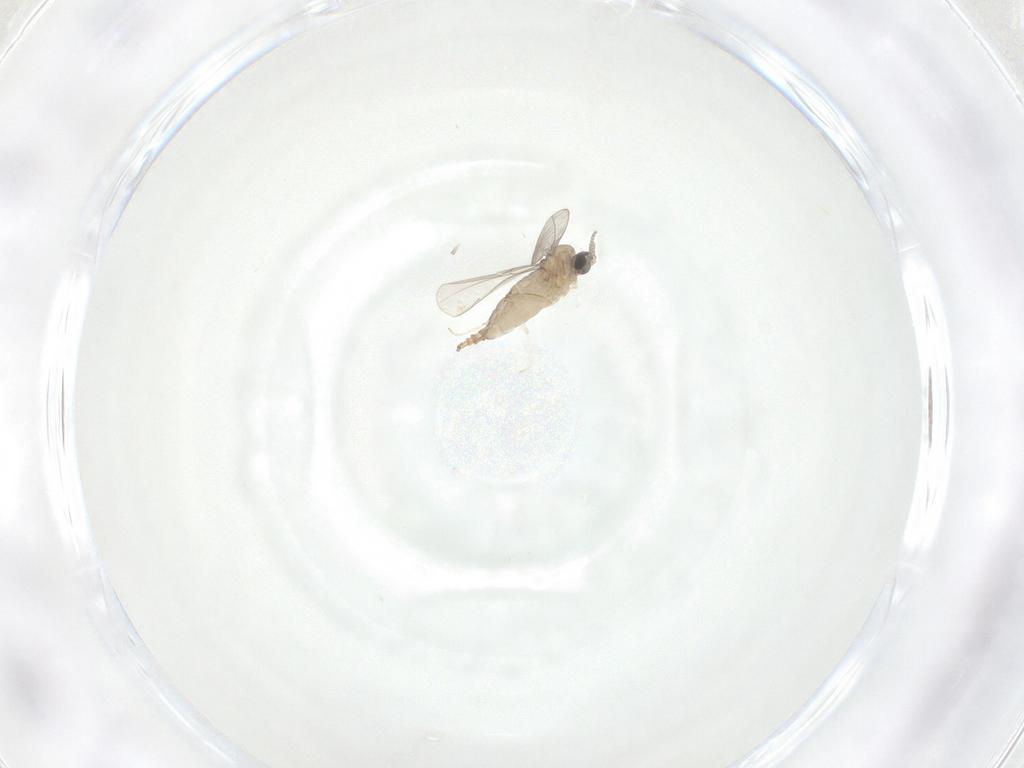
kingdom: Animalia
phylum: Arthropoda
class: Insecta
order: Diptera
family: Cecidomyiidae
